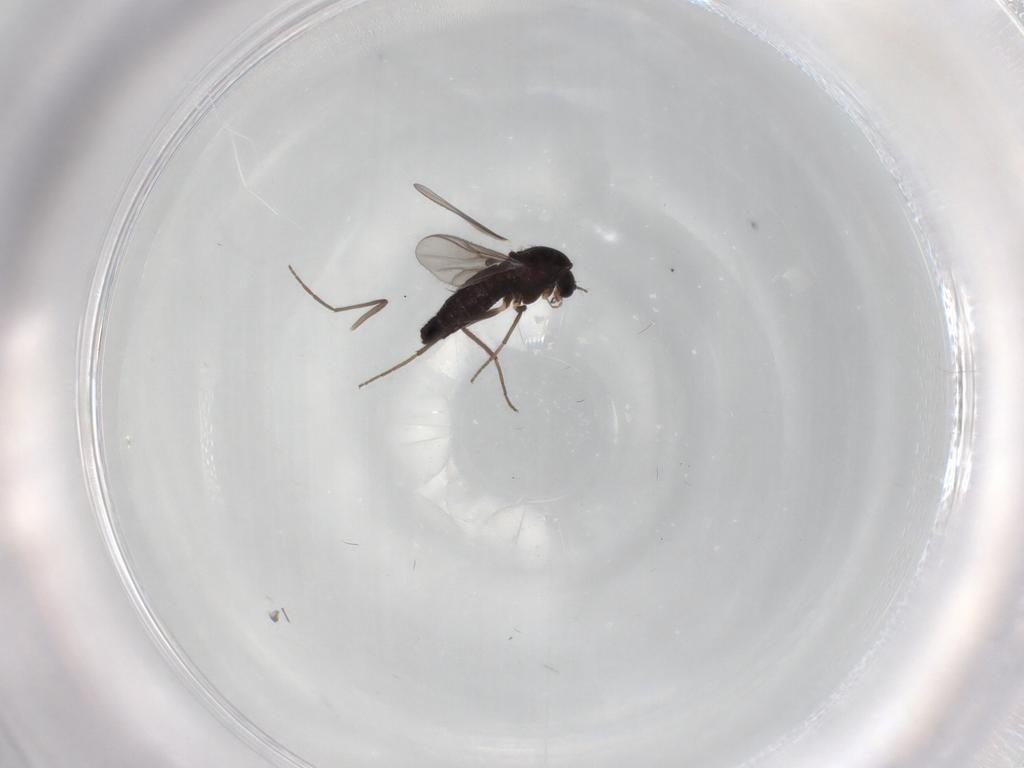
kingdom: Animalia
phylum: Arthropoda
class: Insecta
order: Diptera
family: Chironomidae
